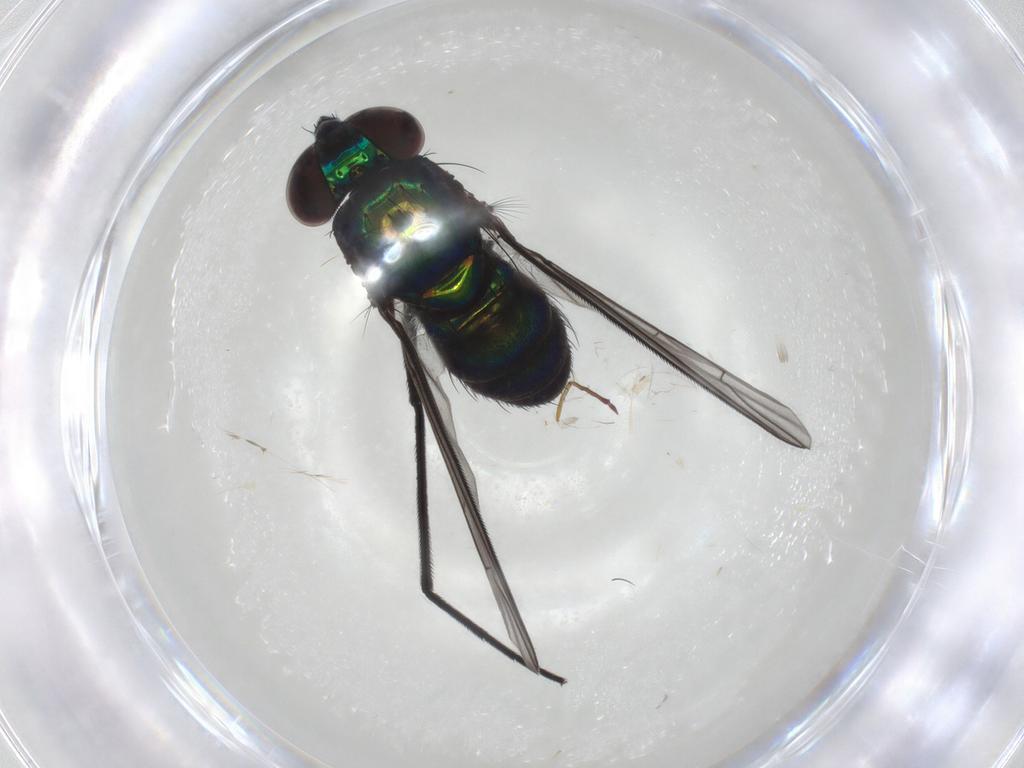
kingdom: Animalia
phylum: Arthropoda
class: Insecta
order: Diptera
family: Dolichopodidae
